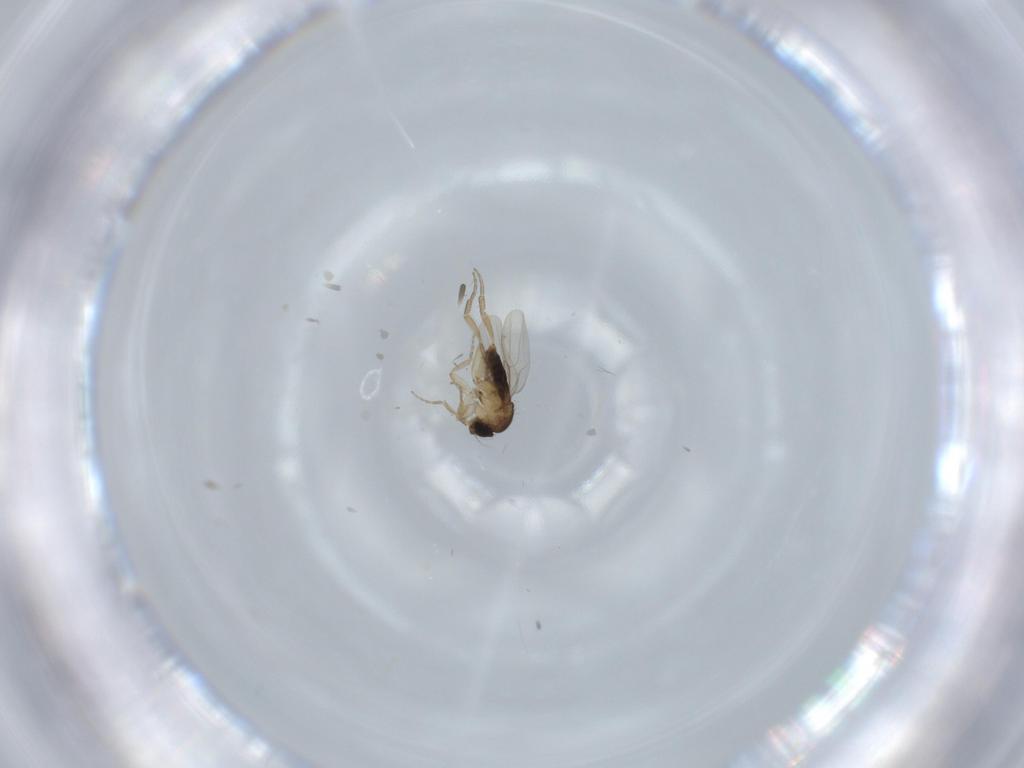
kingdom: Animalia
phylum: Arthropoda
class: Insecta
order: Diptera
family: Phoridae
